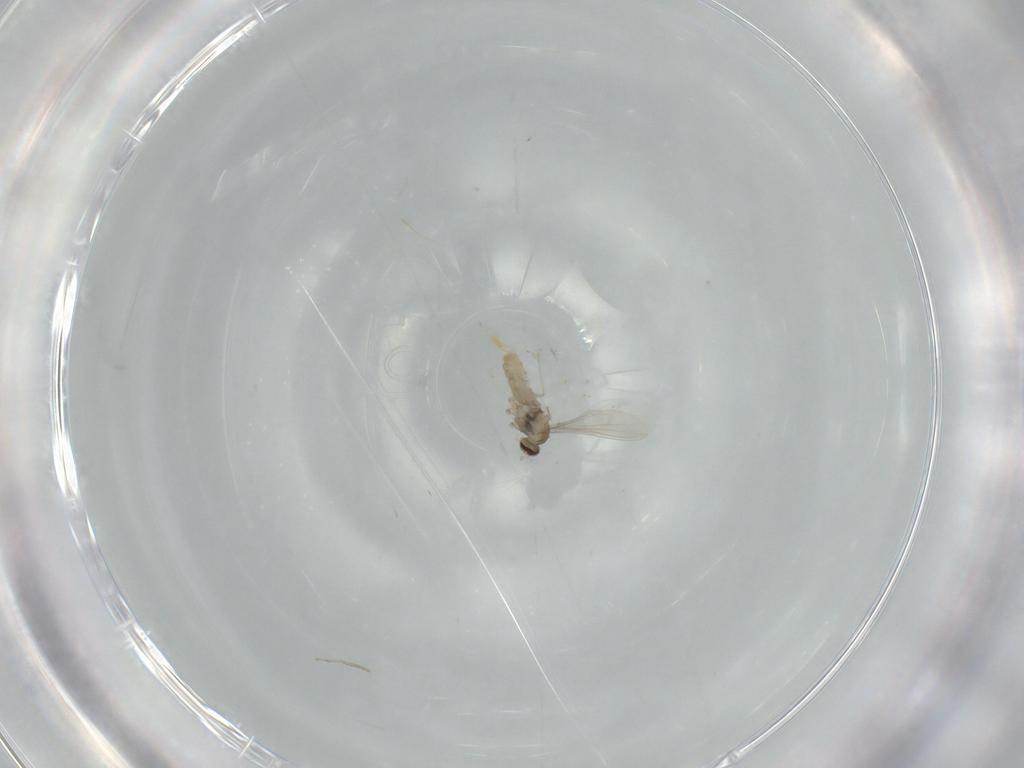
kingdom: Animalia
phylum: Arthropoda
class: Insecta
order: Diptera
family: Cecidomyiidae
